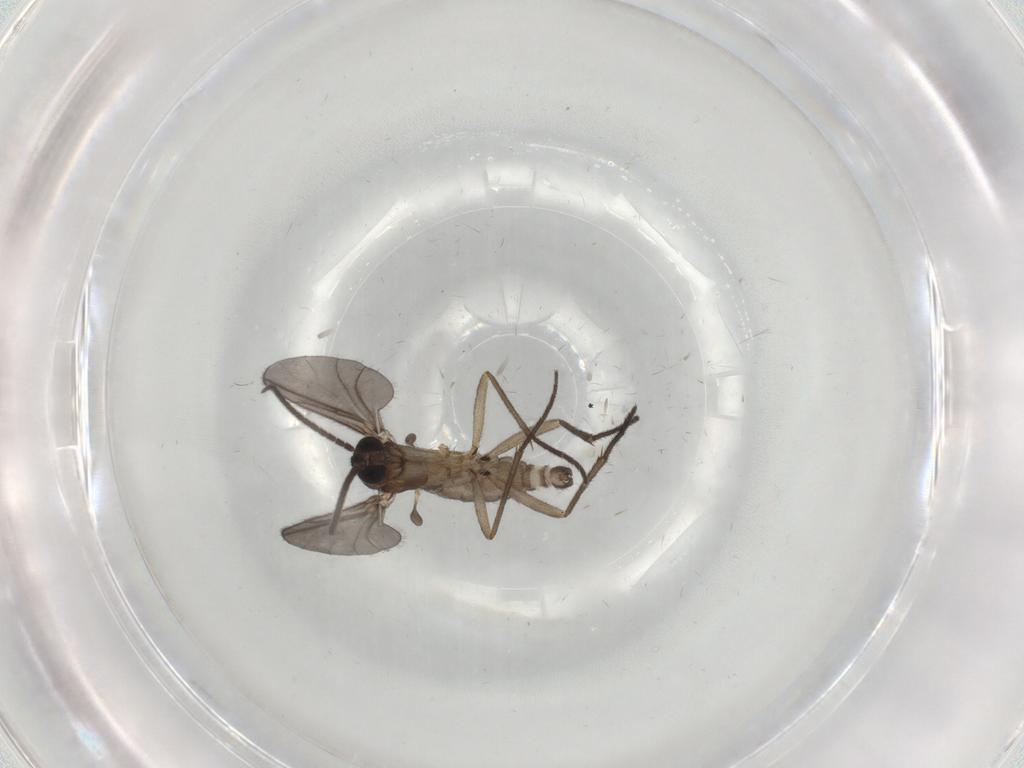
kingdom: Animalia
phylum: Arthropoda
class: Insecta
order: Diptera
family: Sciaridae
